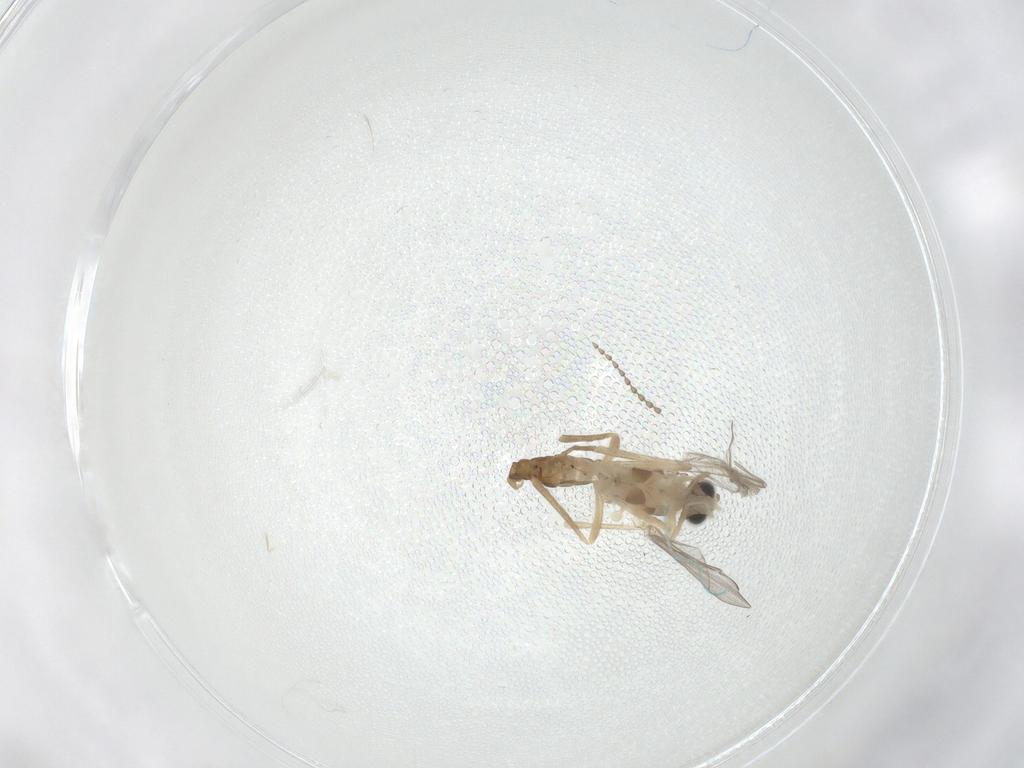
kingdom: Animalia
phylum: Arthropoda
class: Insecta
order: Diptera
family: Cecidomyiidae
